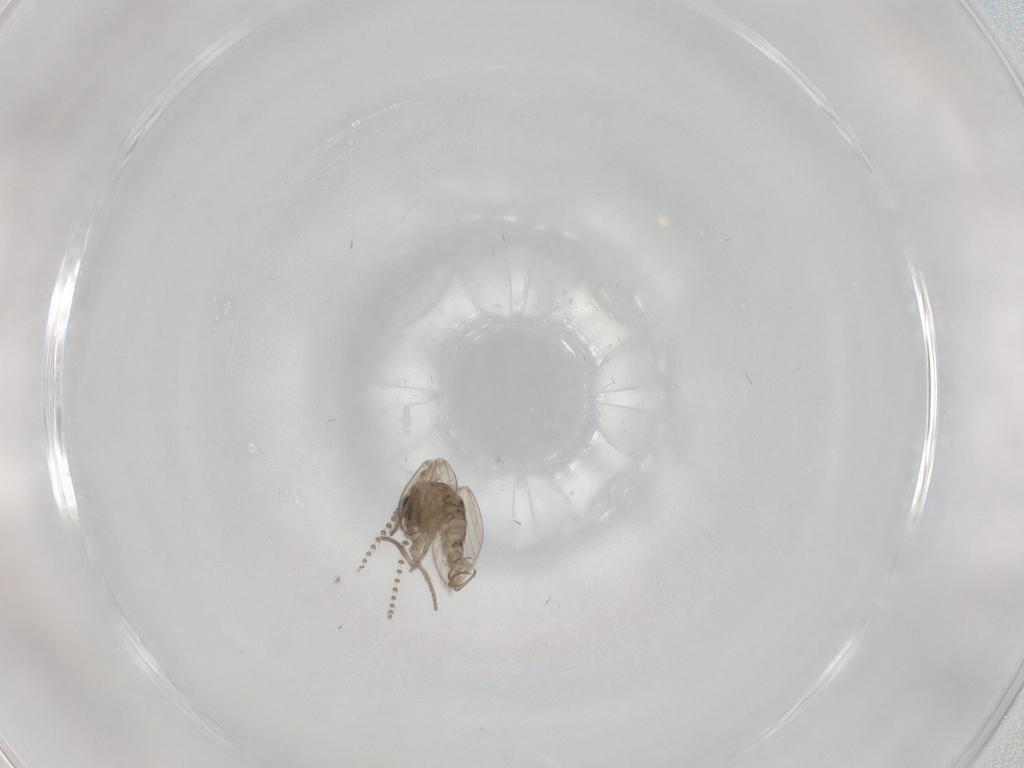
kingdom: Animalia
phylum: Arthropoda
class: Insecta
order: Diptera
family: Psychodidae
